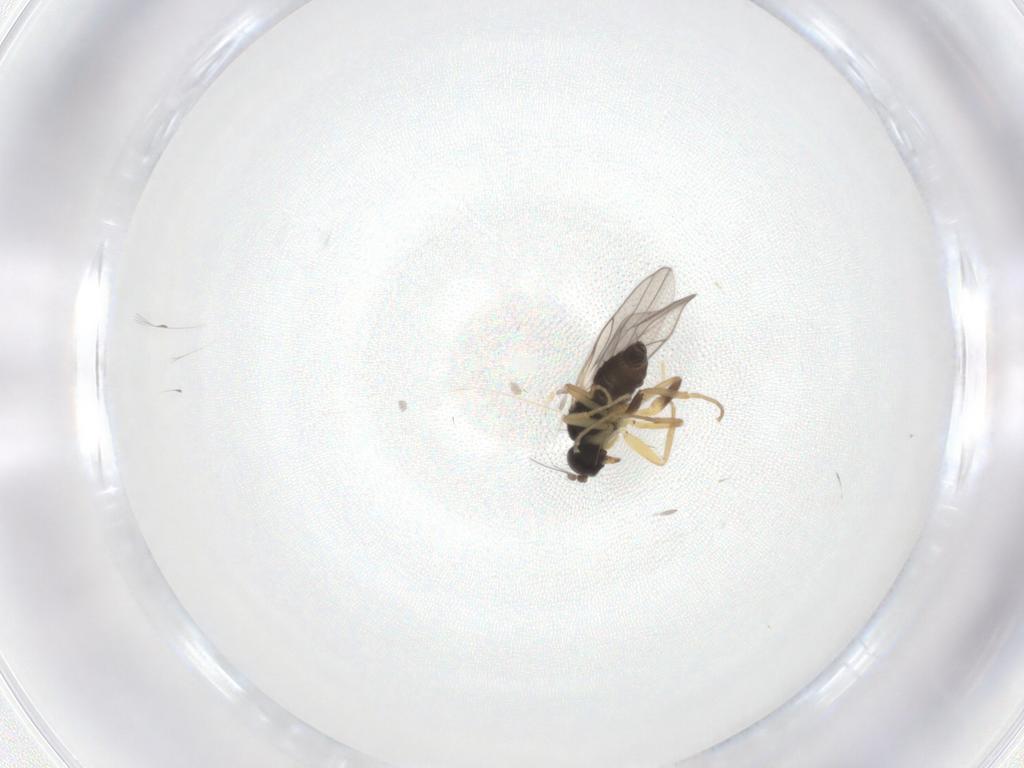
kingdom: Animalia
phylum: Arthropoda
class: Insecta
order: Diptera
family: Hybotidae
